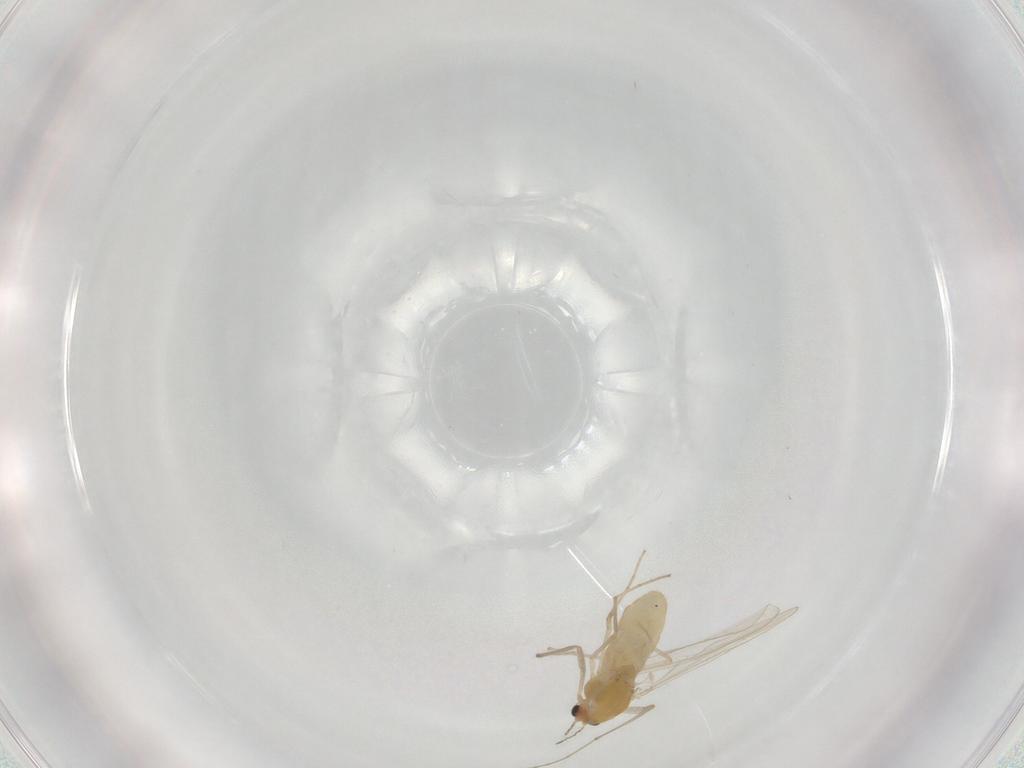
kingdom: Animalia
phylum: Arthropoda
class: Insecta
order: Diptera
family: Chironomidae
